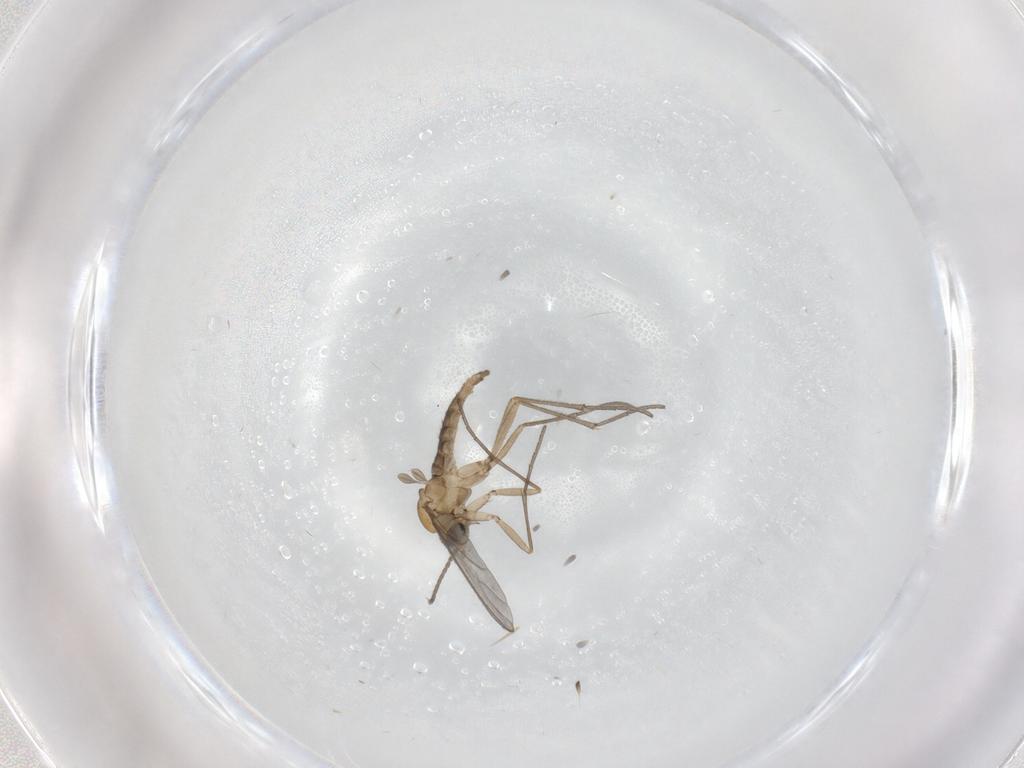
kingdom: Animalia
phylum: Arthropoda
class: Insecta
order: Diptera
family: Sciaridae
